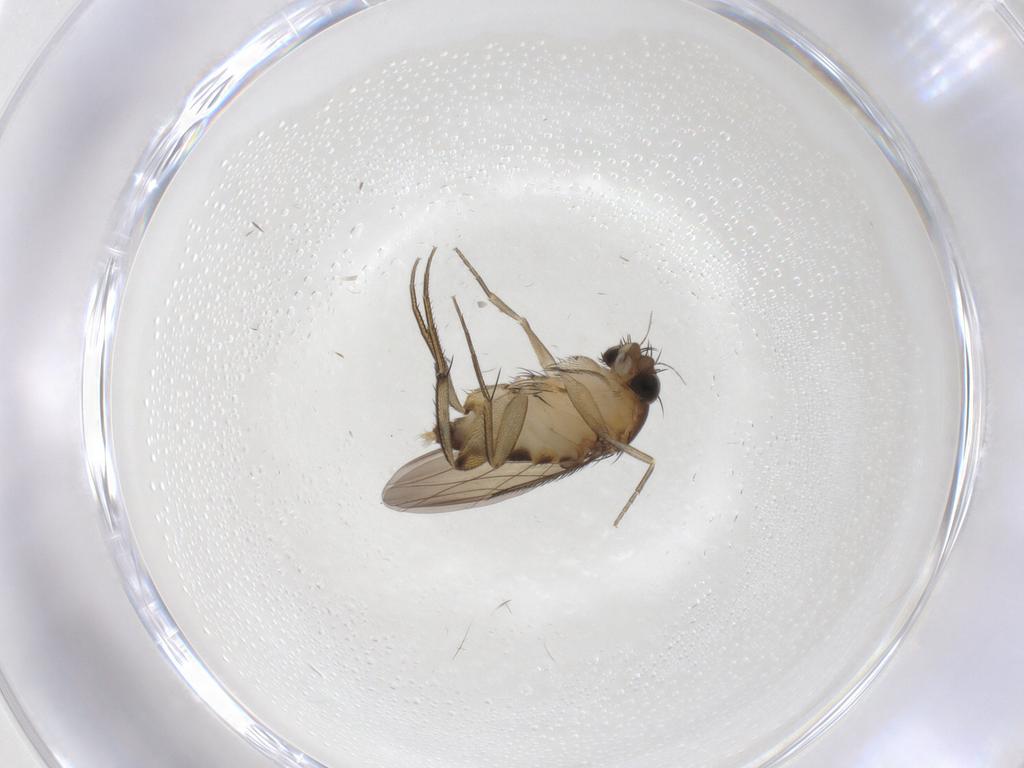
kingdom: Animalia
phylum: Arthropoda
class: Insecta
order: Diptera
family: Phoridae
